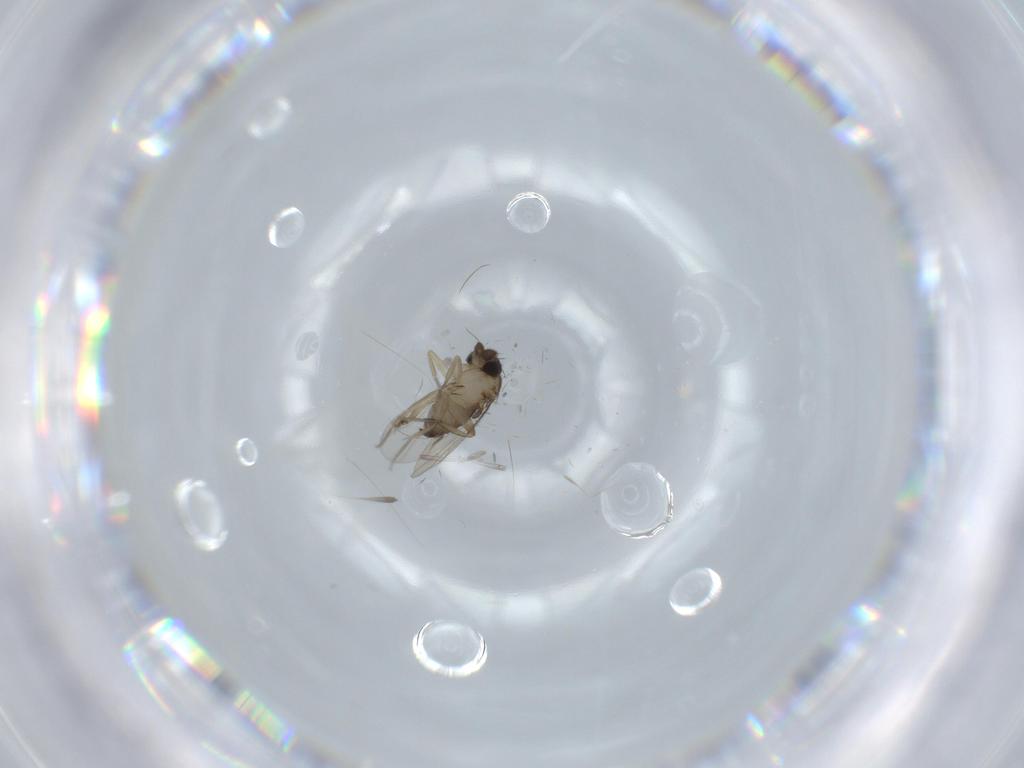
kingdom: Animalia
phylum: Arthropoda
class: Insecta
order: Diptera
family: Phoridae
